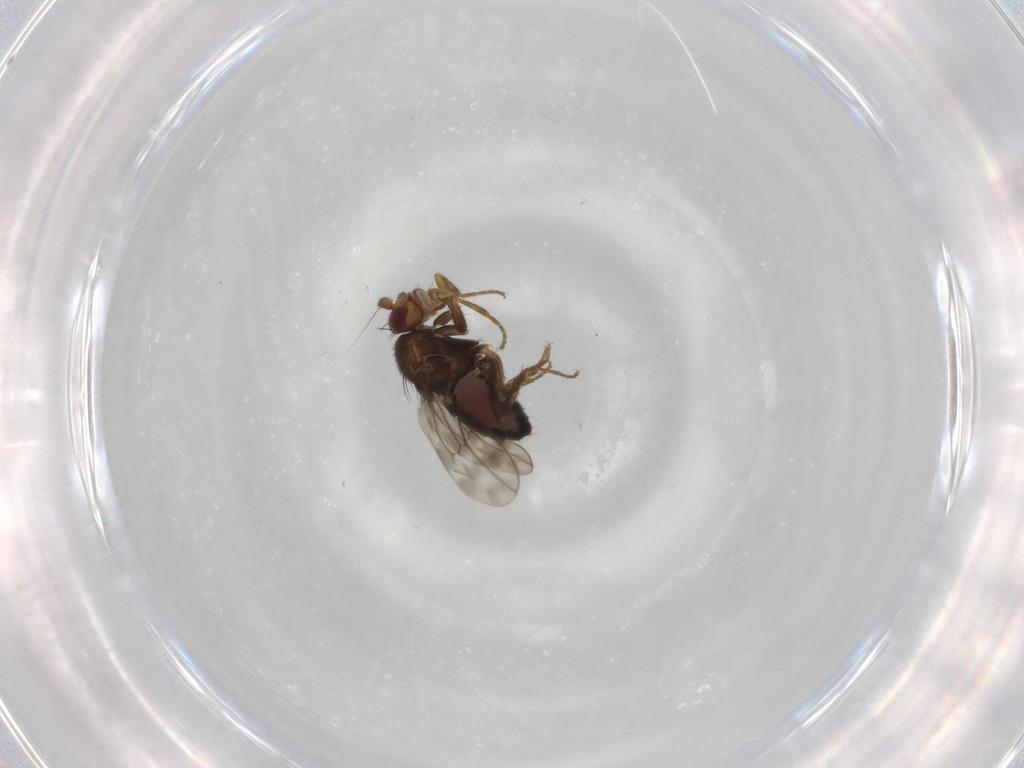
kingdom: Animalia
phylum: Arthropoda
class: Insecta
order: Diptera
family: Sphaeroceridae
